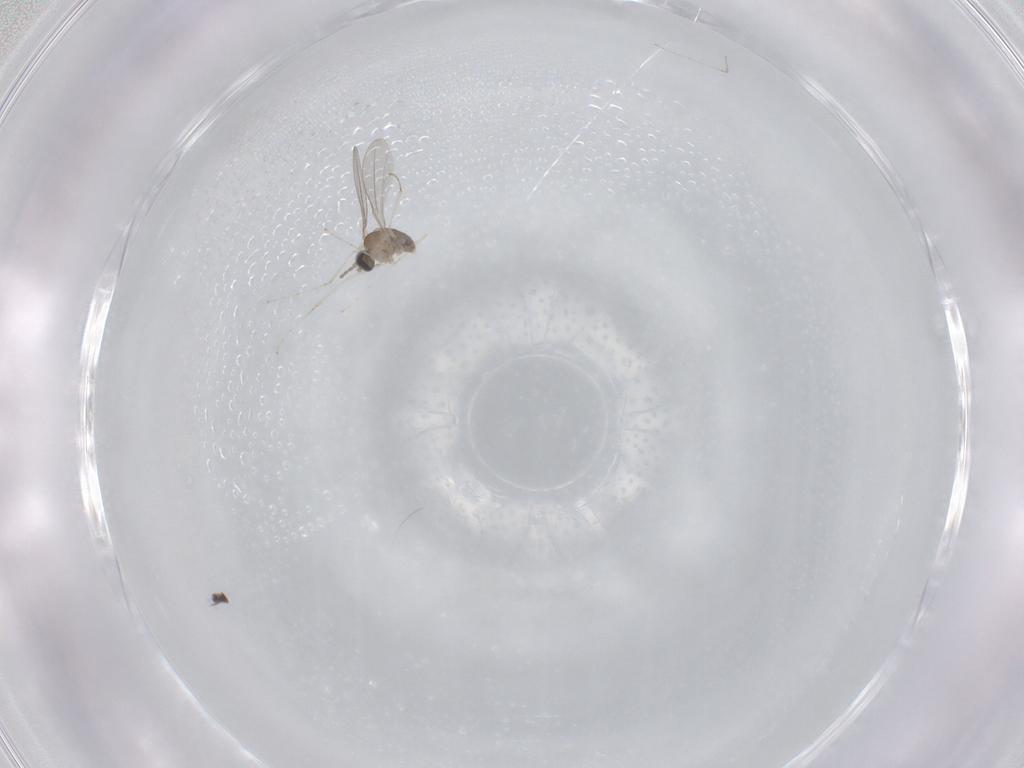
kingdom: Animalia
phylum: Arthropoda
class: Insecta
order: Diptera
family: Cecidomyiidae
